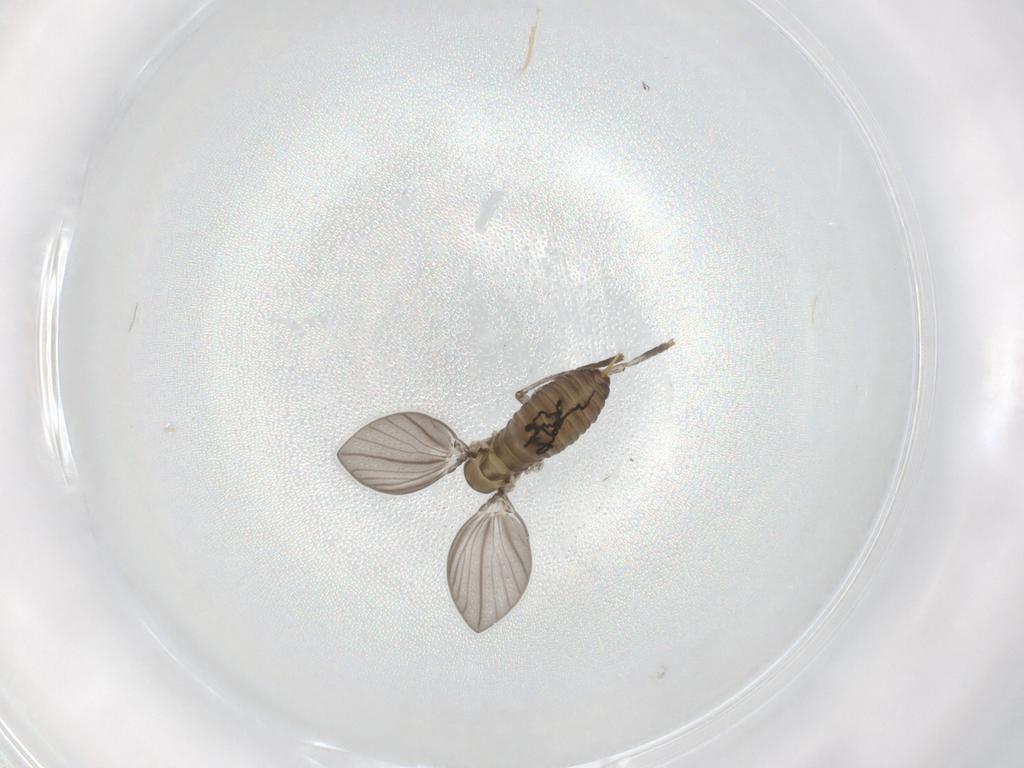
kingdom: Animalia
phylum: Arthropoda
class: Insecta
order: Diptera
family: Psychodidae
